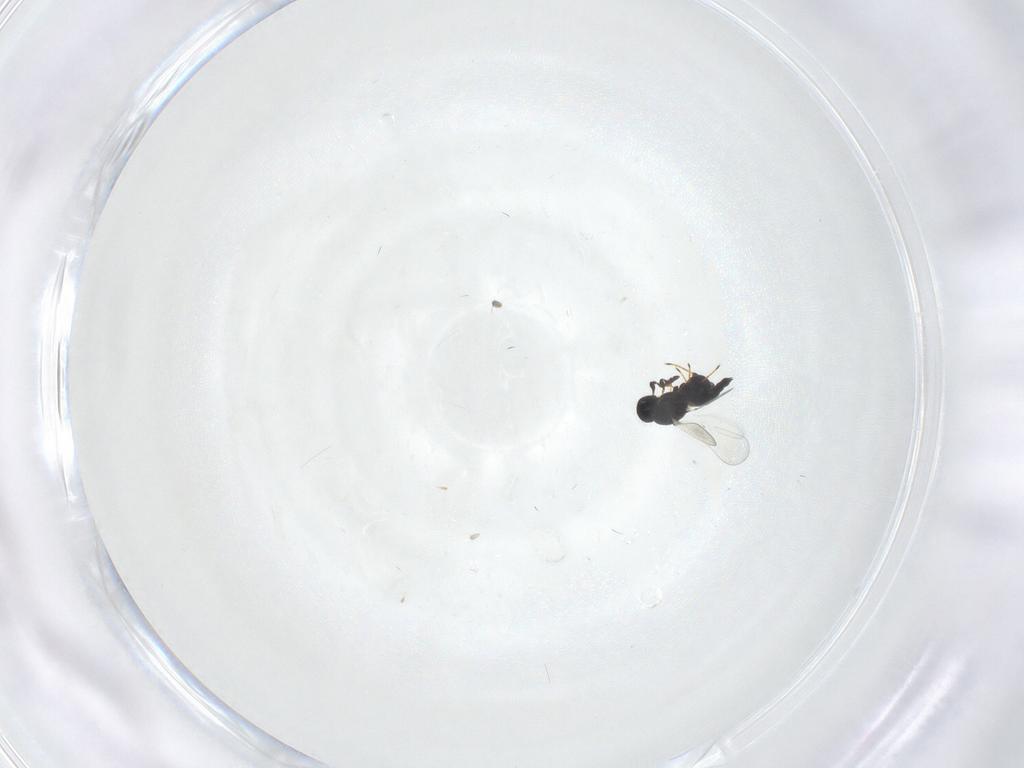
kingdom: Animalia
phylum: Arthropoda
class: Insecta
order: Hymenoptera
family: Platygastridae
